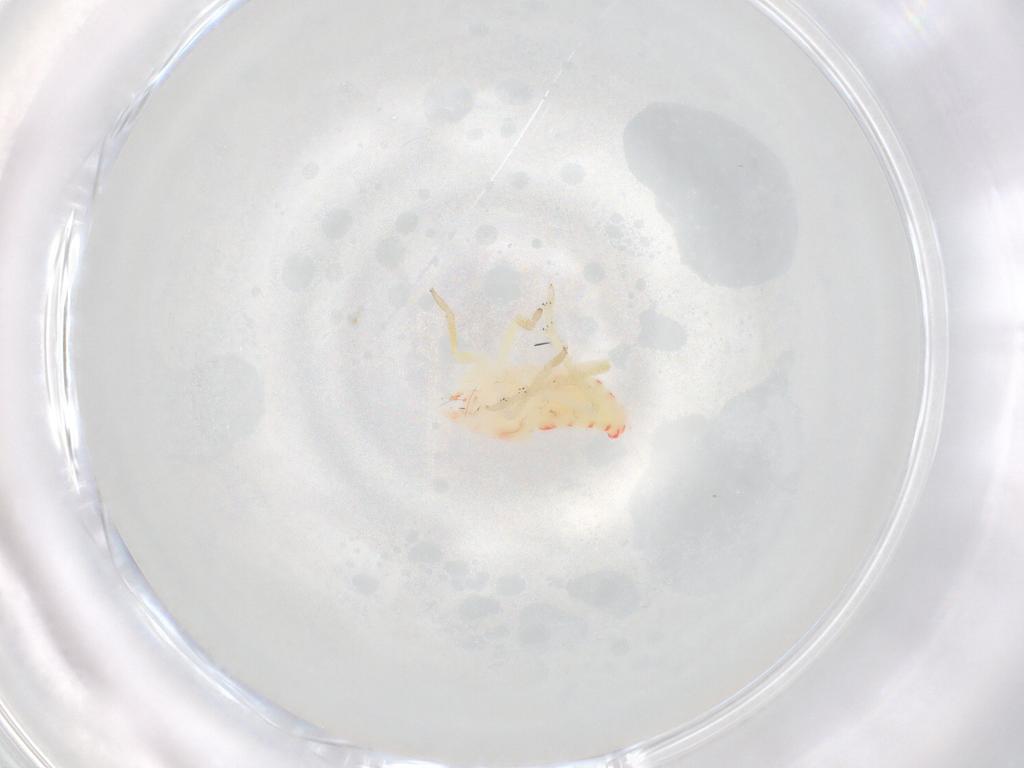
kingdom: Animalia
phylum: Arthropoda
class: Insecta
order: Hemiptera
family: Tropiduchidae
